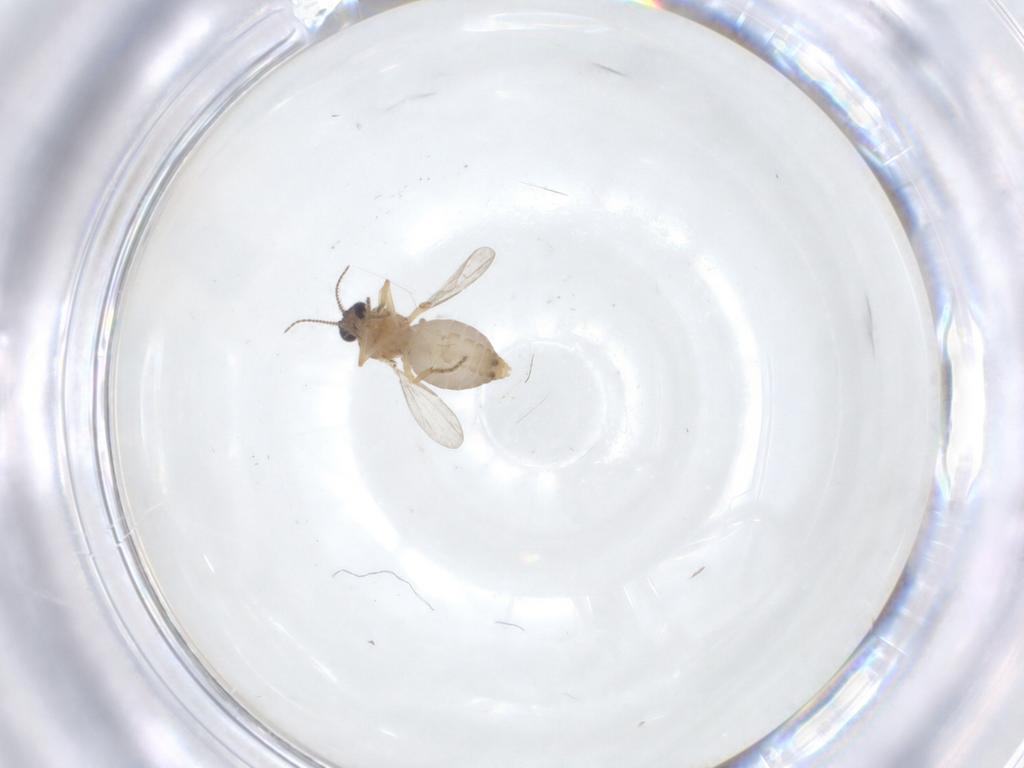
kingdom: Animalia
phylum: Arthropoda
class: Insecta
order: Diptera
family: Ceratopogonidae
